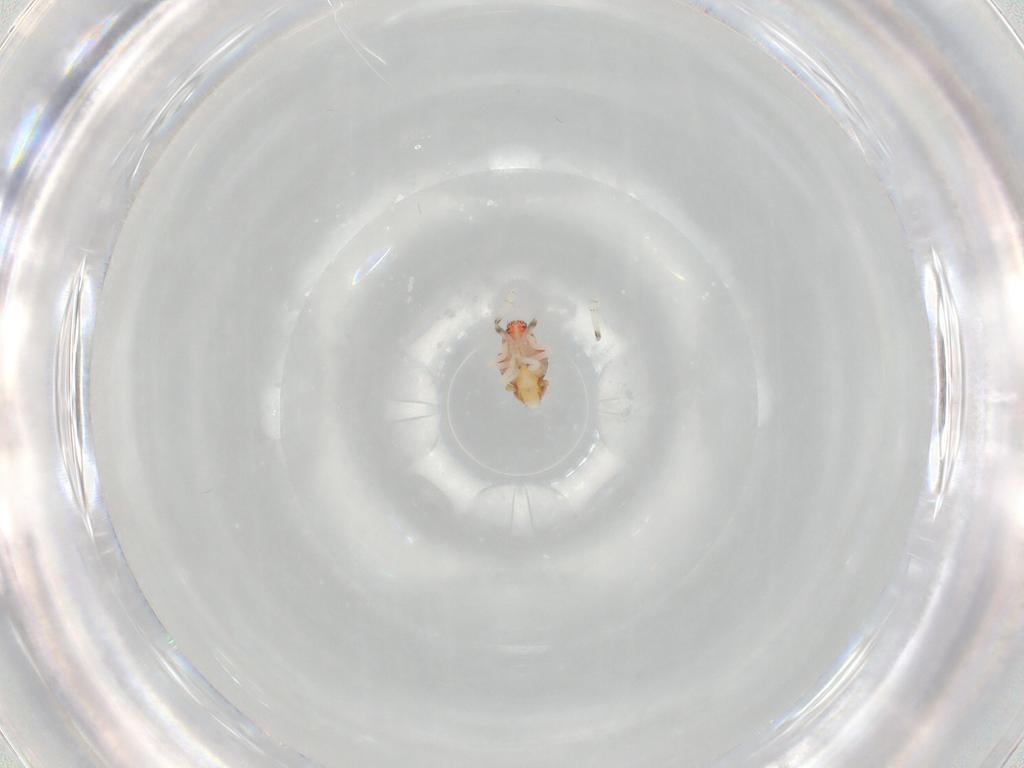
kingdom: Animalia
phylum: Arthropoda
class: Insecta
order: Hemiptera
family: Nogodinidae
